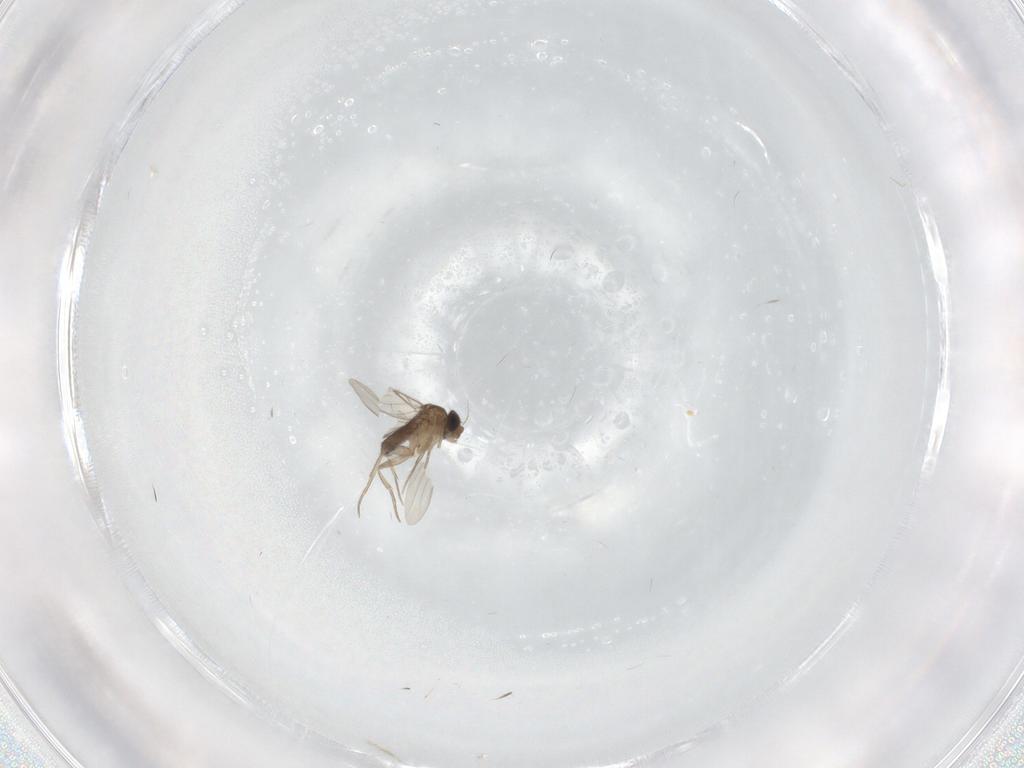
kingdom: Animalia
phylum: Arthropoda
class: Insecta
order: Diptera
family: Phoridae
